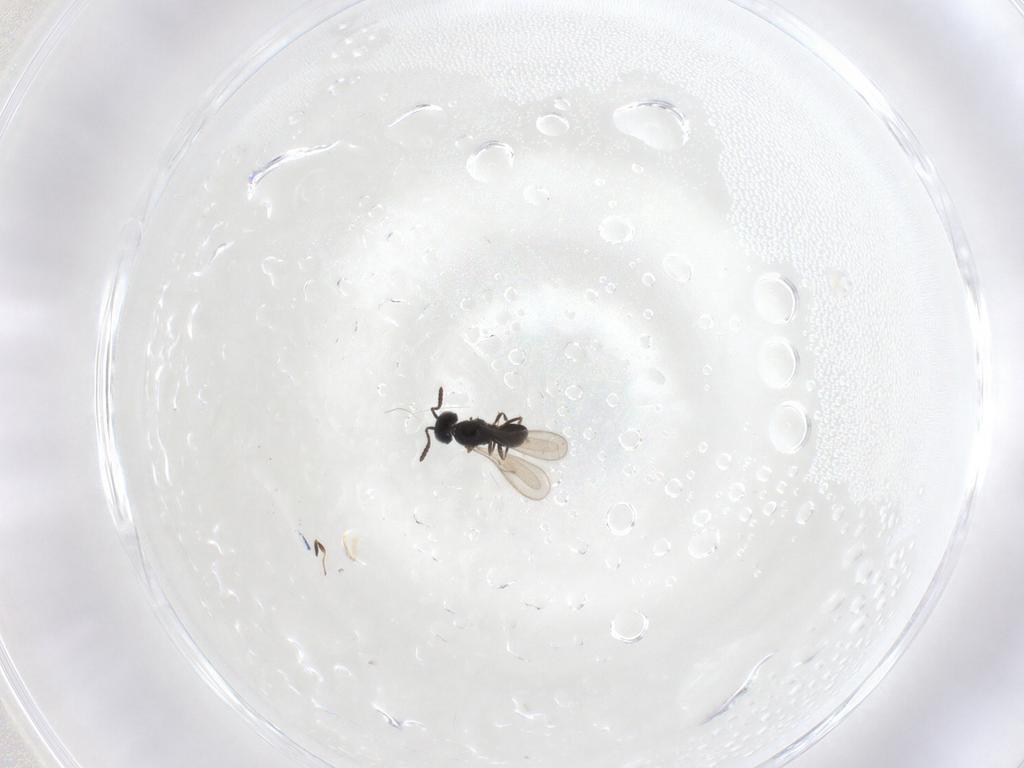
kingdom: Animalia
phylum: Arthropoda
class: Insecta
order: Hymenoptera
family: Scelionidae
